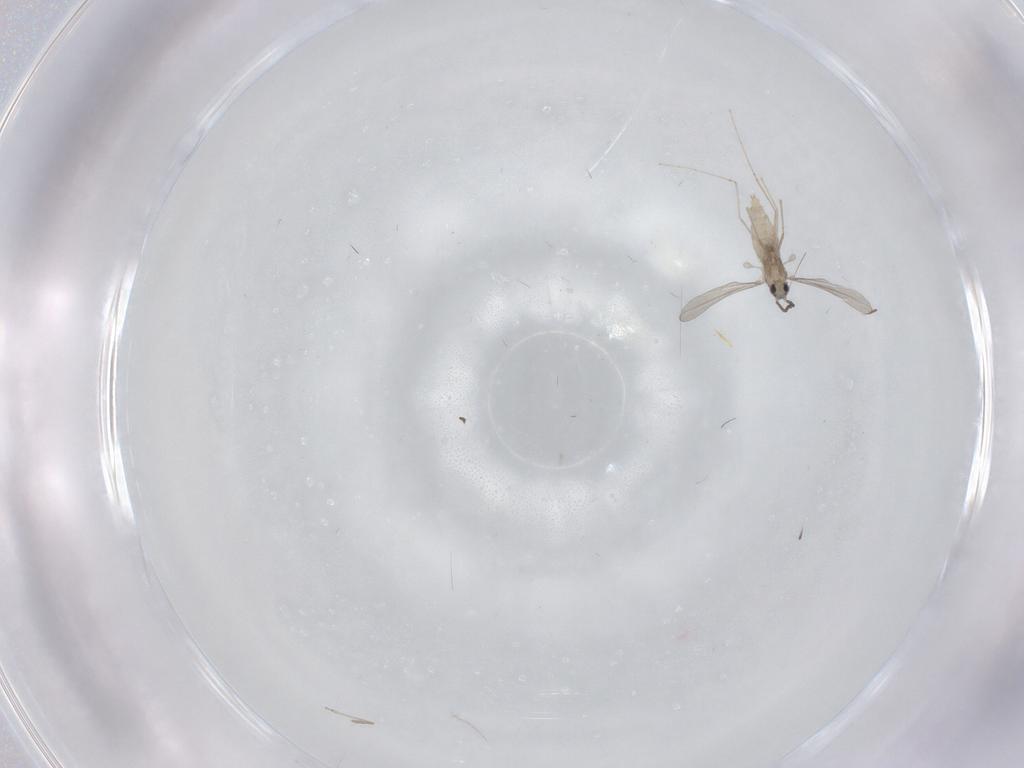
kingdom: Animalia
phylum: Arthropoda
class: Insecta
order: Diptera
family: Cecidomyiidae
